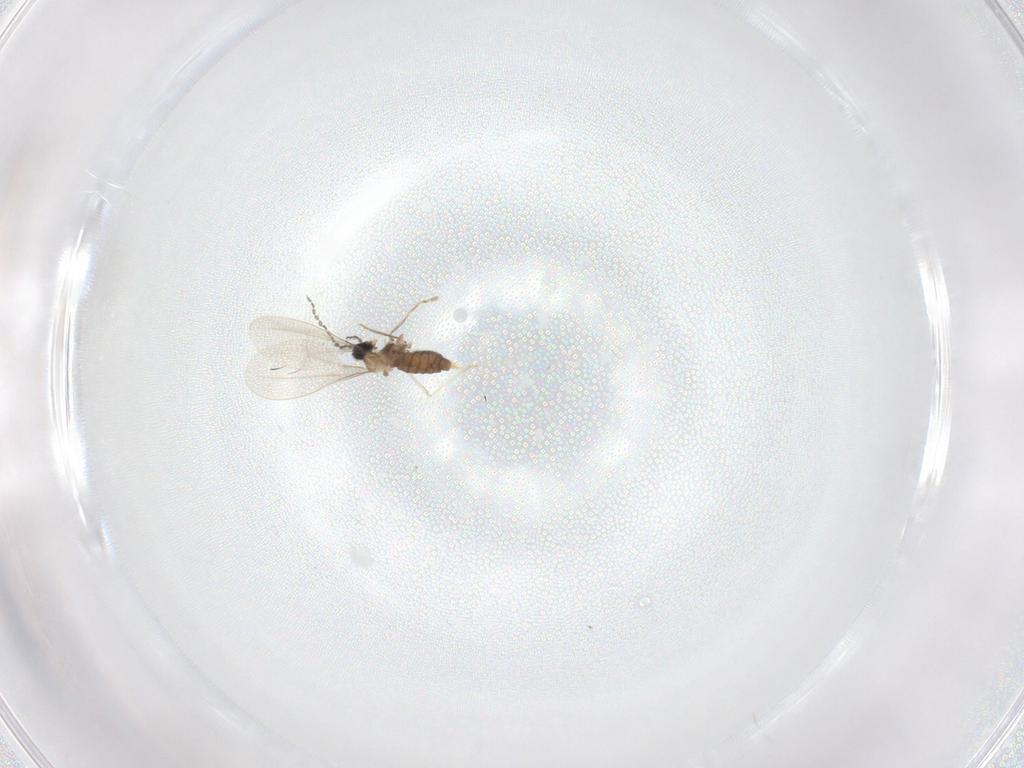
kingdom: Animalia
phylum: Arthropoda
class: Insecta
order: Diptera
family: Cecidomyiidae
